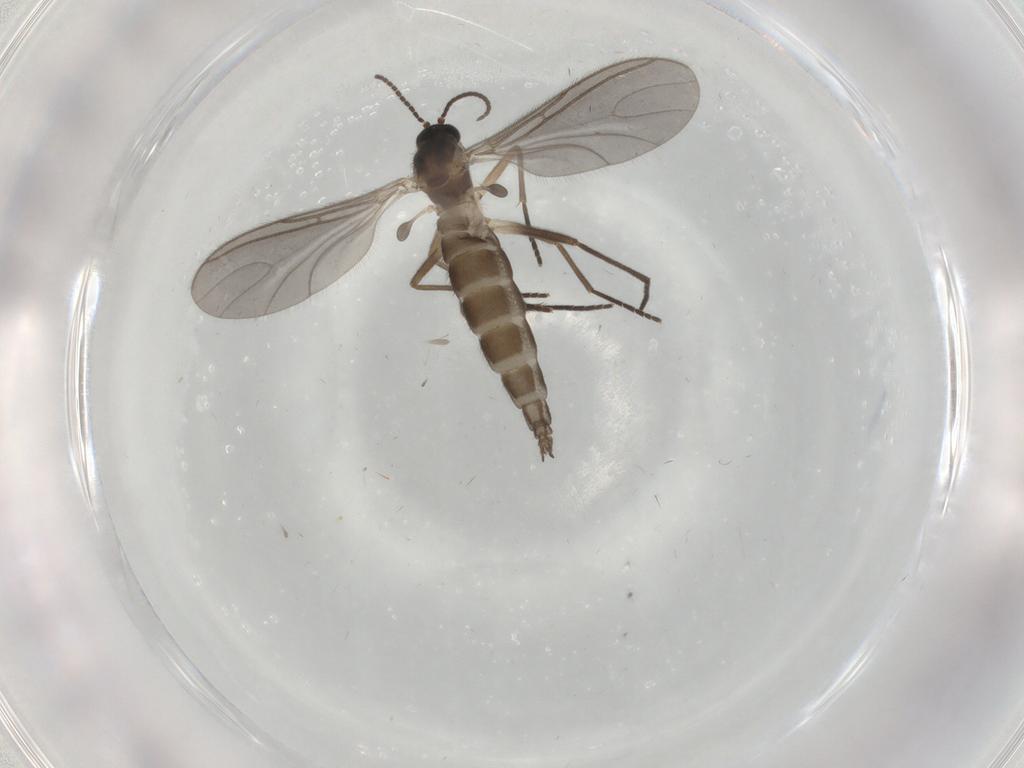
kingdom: Animalia
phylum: Arthropoda
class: Insecta
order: Diptera
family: Sciaridae
